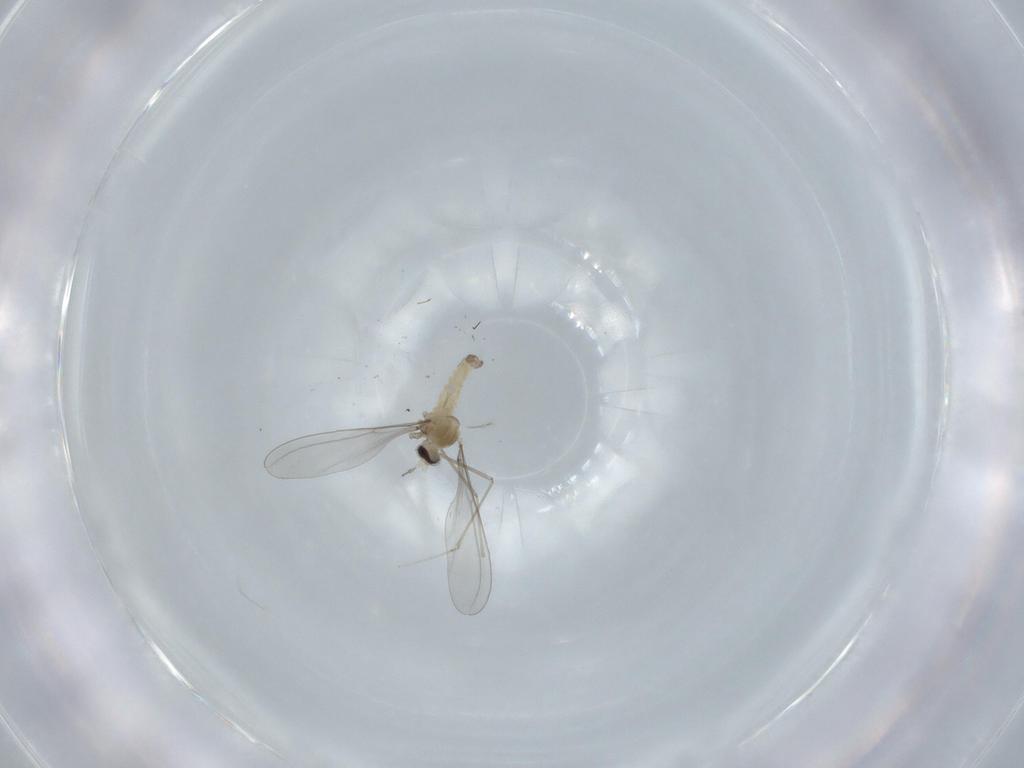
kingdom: Animalia
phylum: Arthropoda
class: Insecta
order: Diptera
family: Cecidomyiidae
